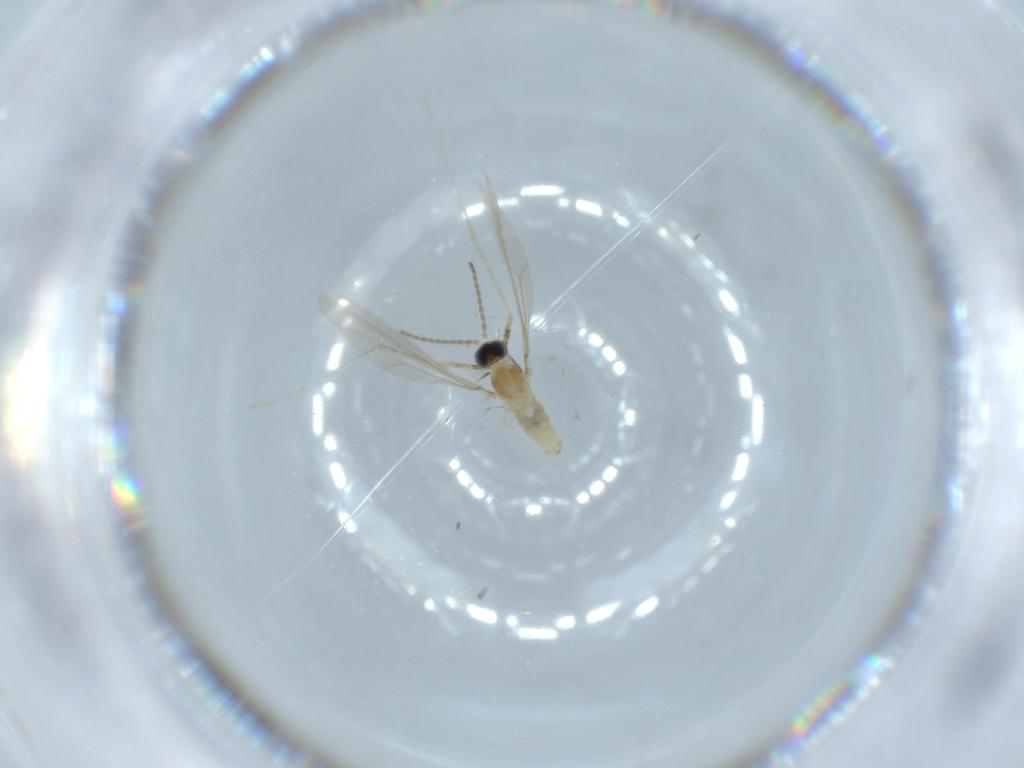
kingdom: Animalia
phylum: Arthropoda
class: Insecta
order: Diptera
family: Cecidomyiidae
